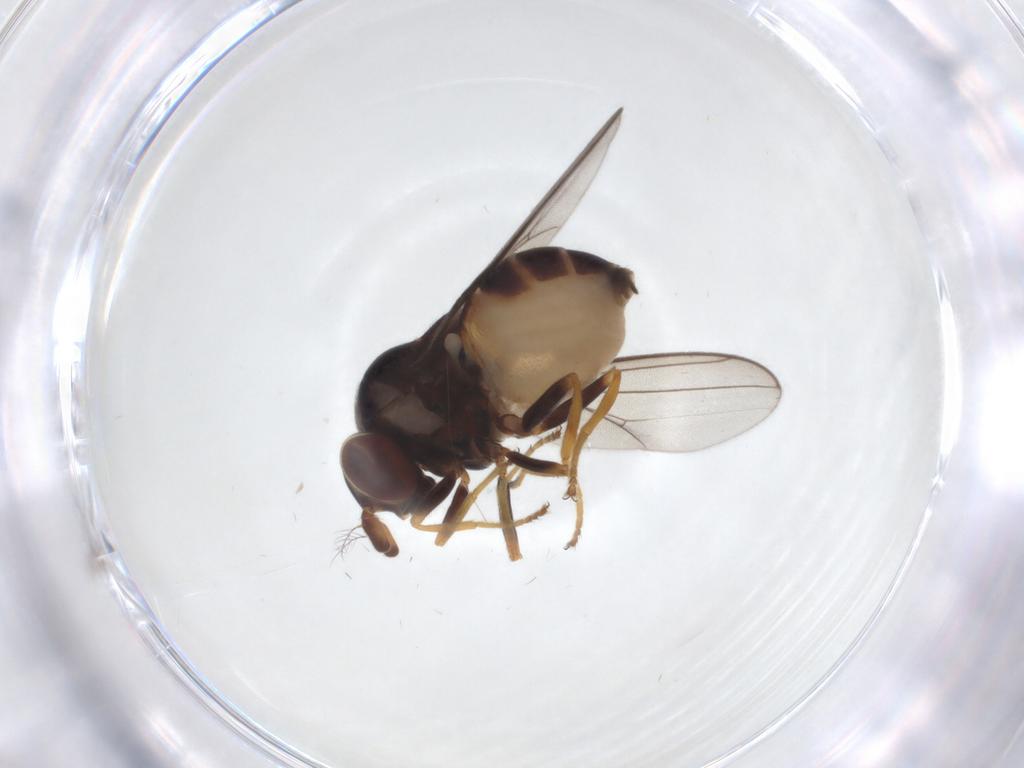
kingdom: Animalia
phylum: Arthropoda
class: Insecta
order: Diptera
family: Chloropidae
